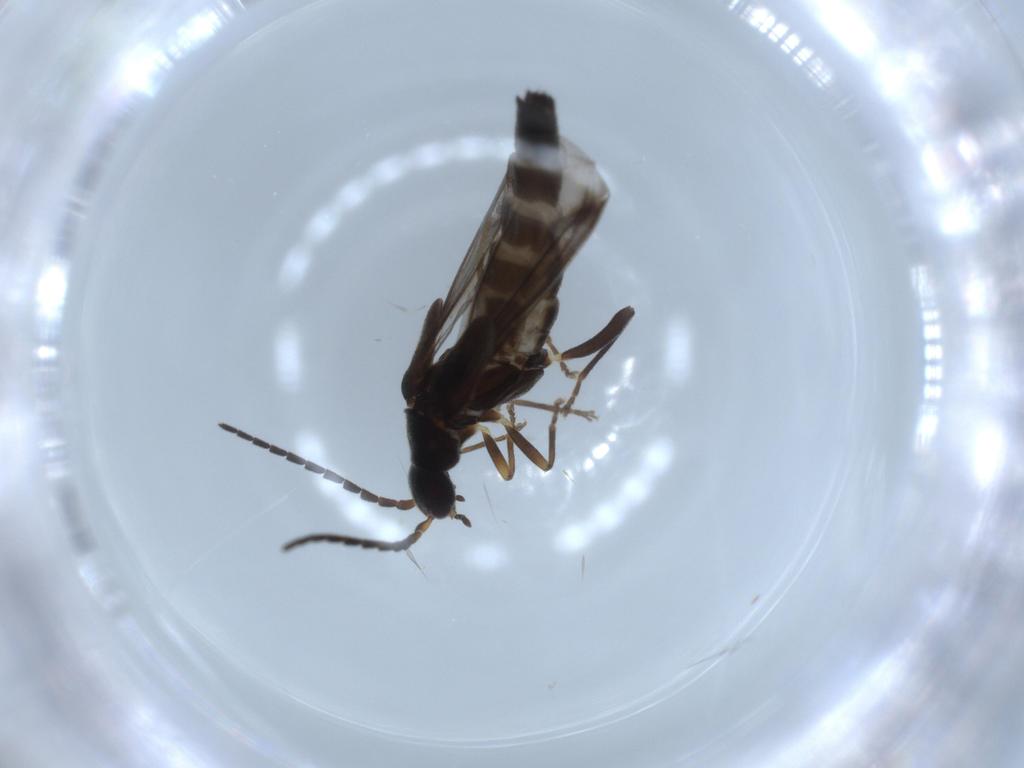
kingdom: Animalia
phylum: Arthropoda
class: Insecta
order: Coleoptera
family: Cantharidae
